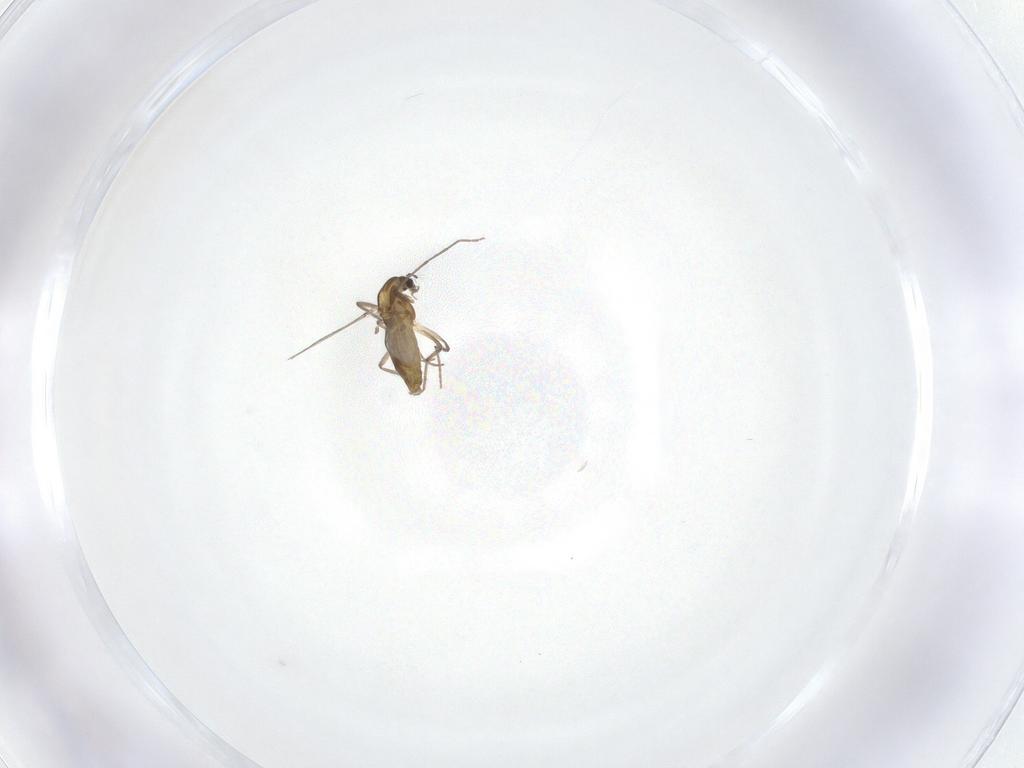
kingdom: Animalia
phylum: Arthropoda
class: Insecta
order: Diptera
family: Chironomidae
